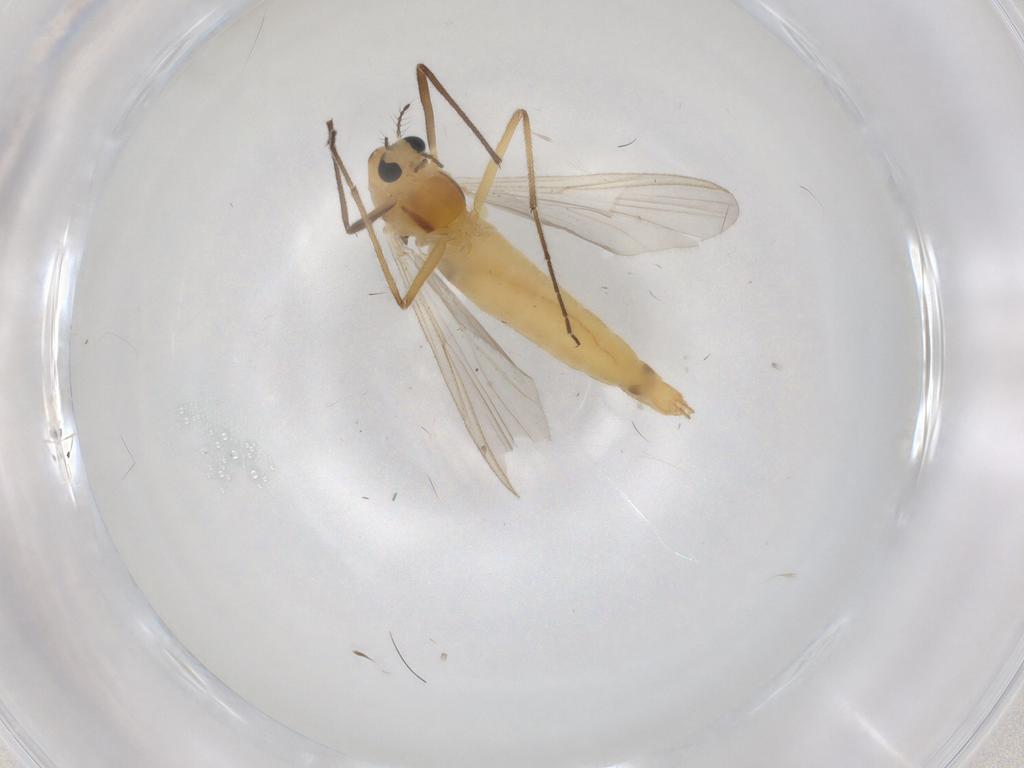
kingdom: Animalia
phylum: Arthropoda
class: Insecta
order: Diptera
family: Chironomidae
